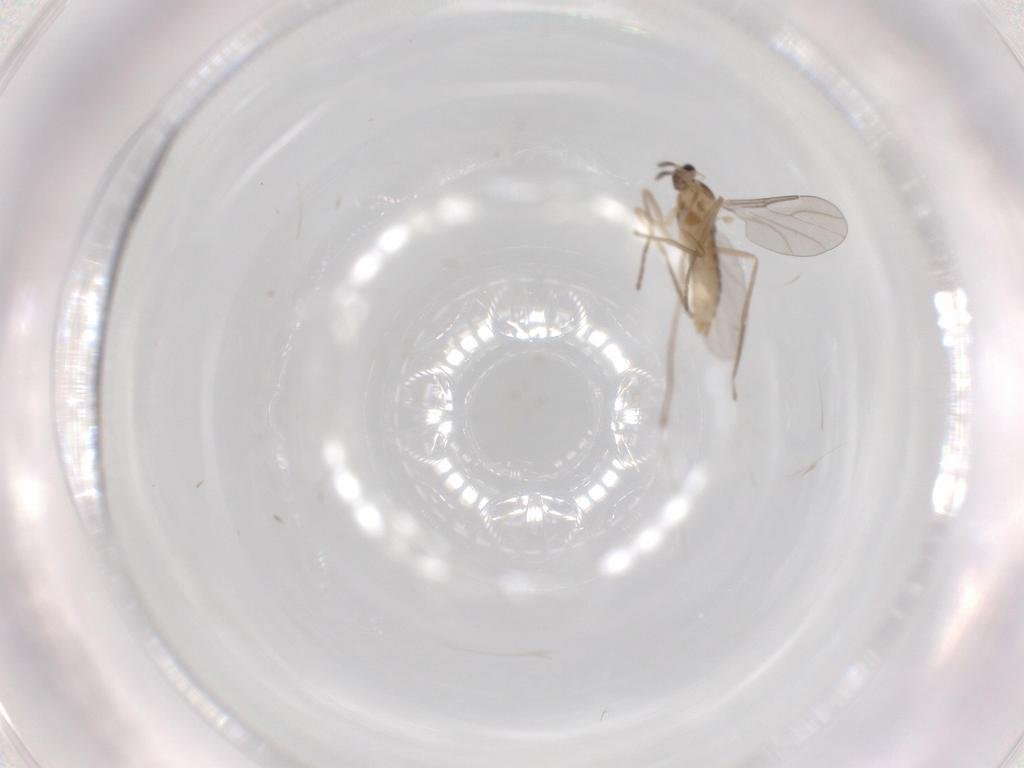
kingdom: Animalia
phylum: Arthropoda
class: Insecta
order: Diptera
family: Cecidomyiidae
